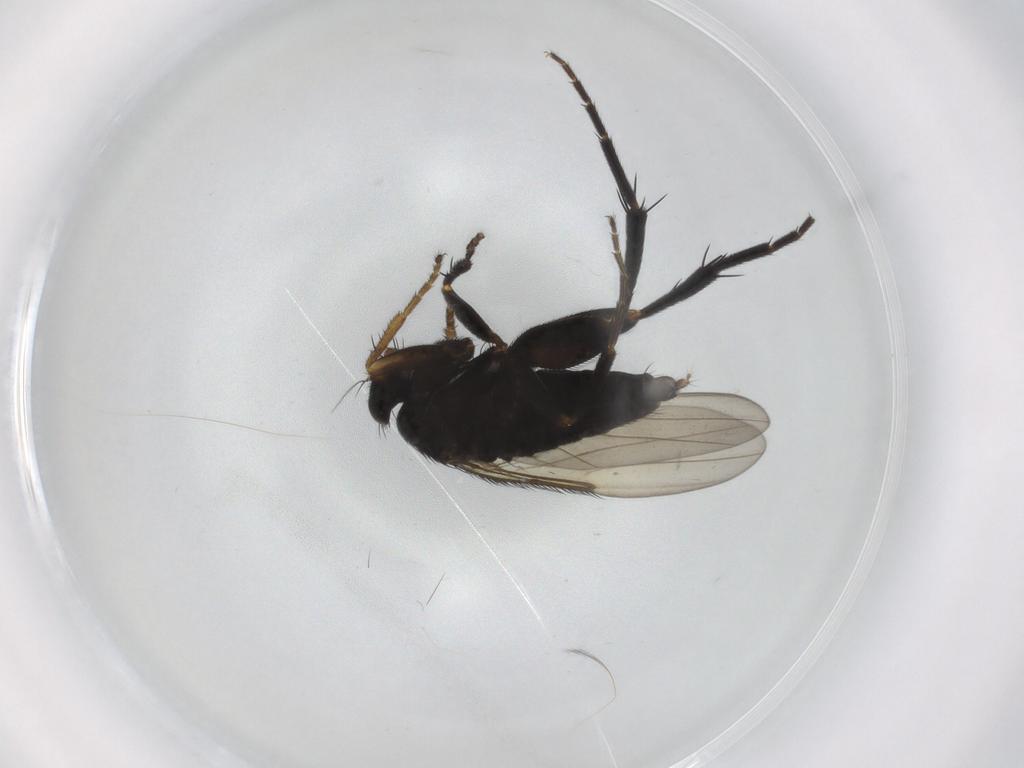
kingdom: Animalia
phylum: Arthropoda
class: Insecta
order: Diptera
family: Phoridae
